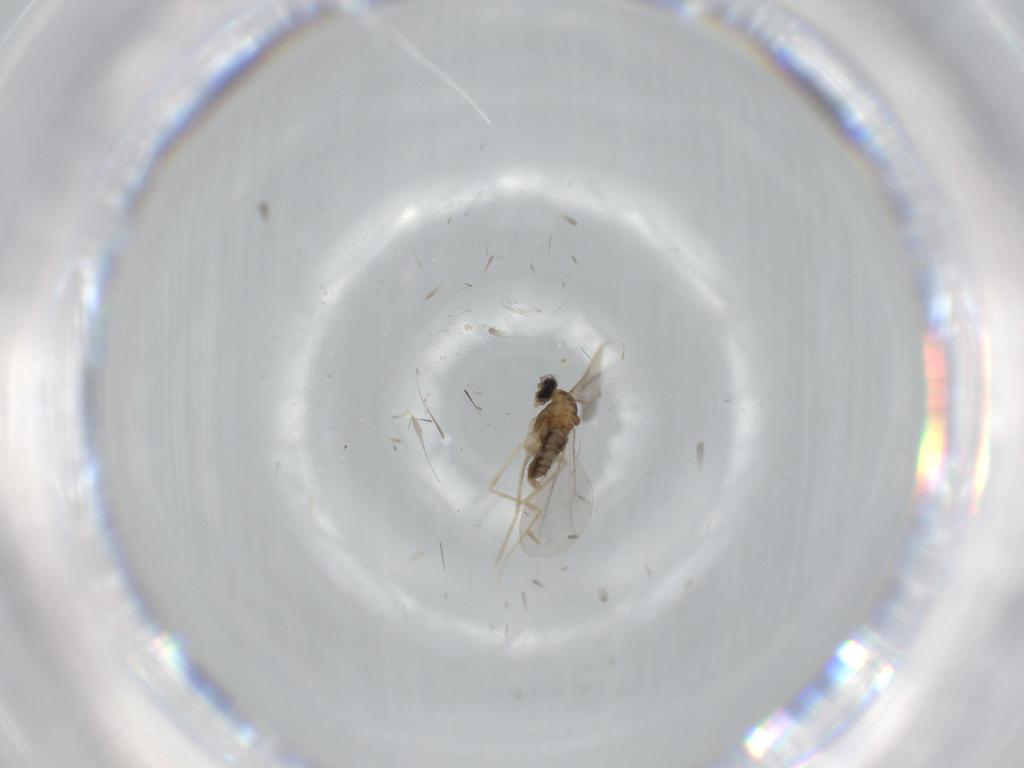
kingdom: Animalia
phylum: Arthropoda
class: Insecta
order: Diptera
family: Cecidomyiidae
